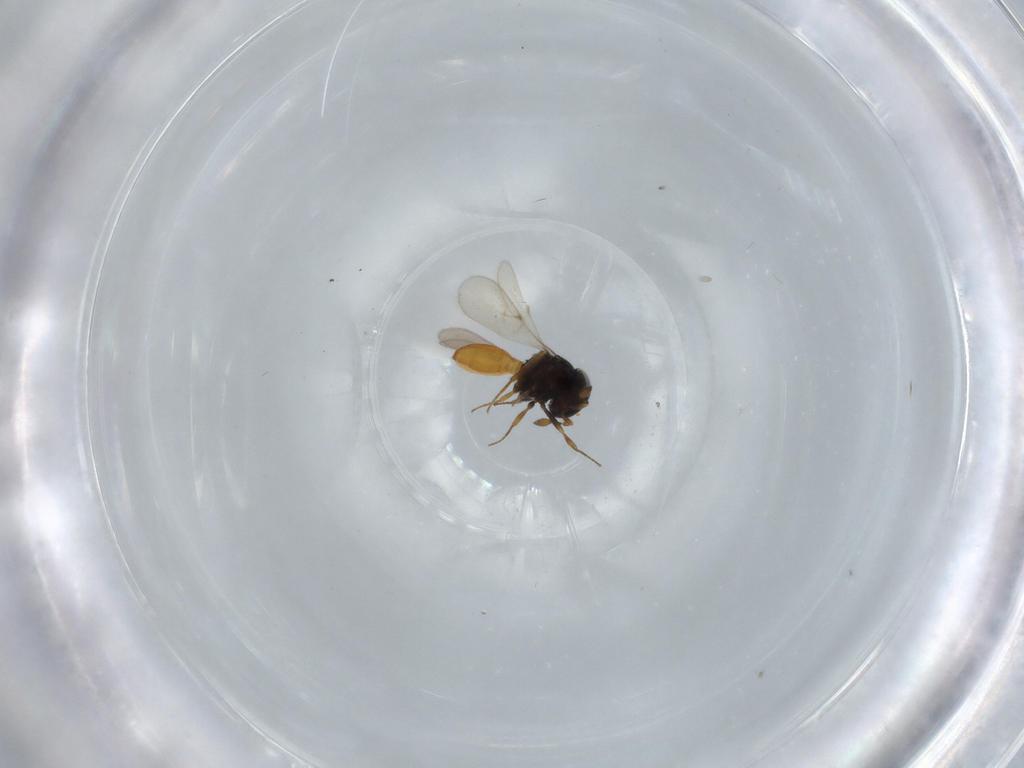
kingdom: Animalia
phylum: Arthropoda
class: Insecta
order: Hymenoptera
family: Scelionidae
